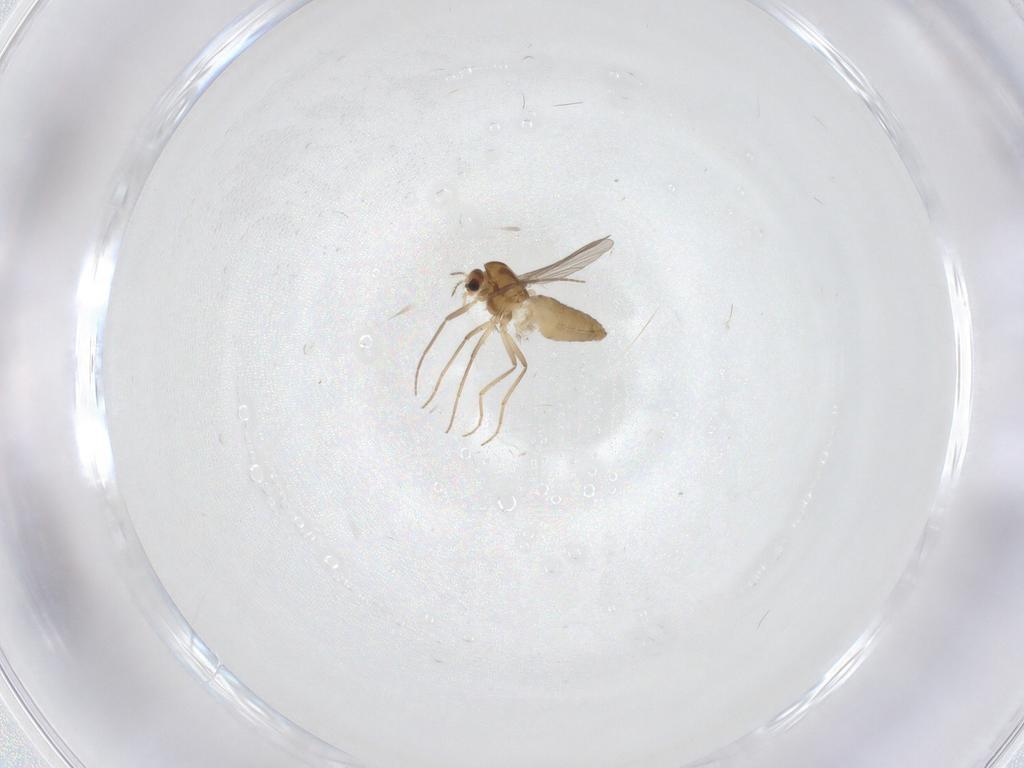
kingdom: Animalia
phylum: Arthropoda
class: Insecta
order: Diptera
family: Chironomidae
